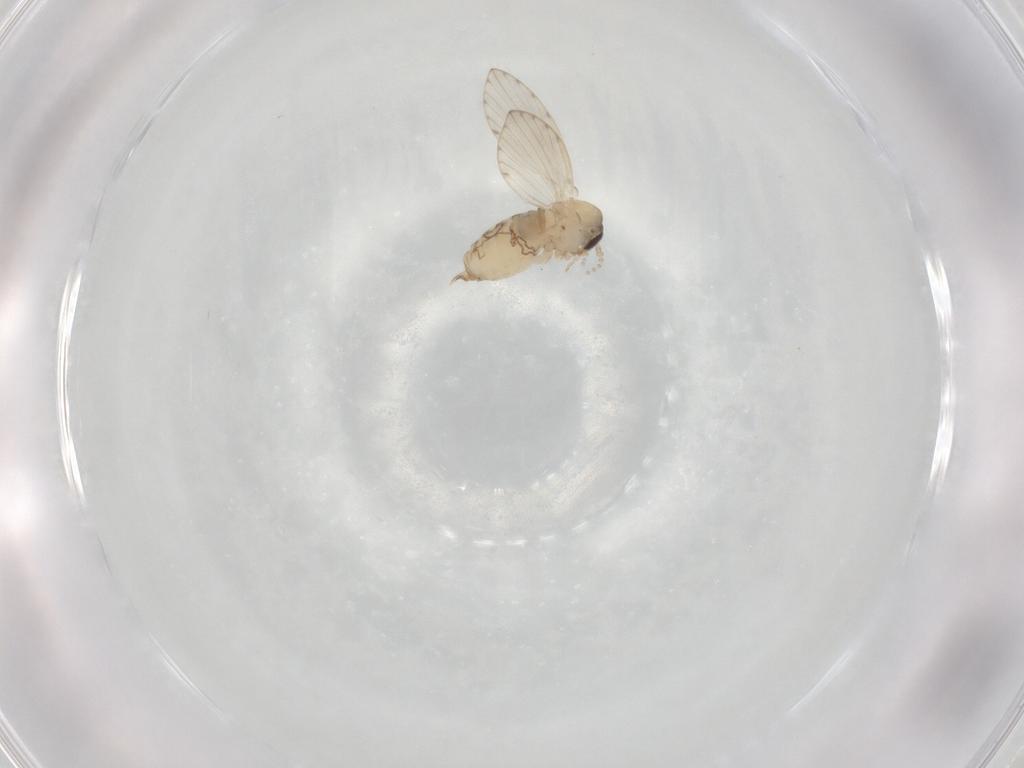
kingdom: Animalia
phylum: Arthropoda
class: Insecta
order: Diptera
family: Psychodidae
